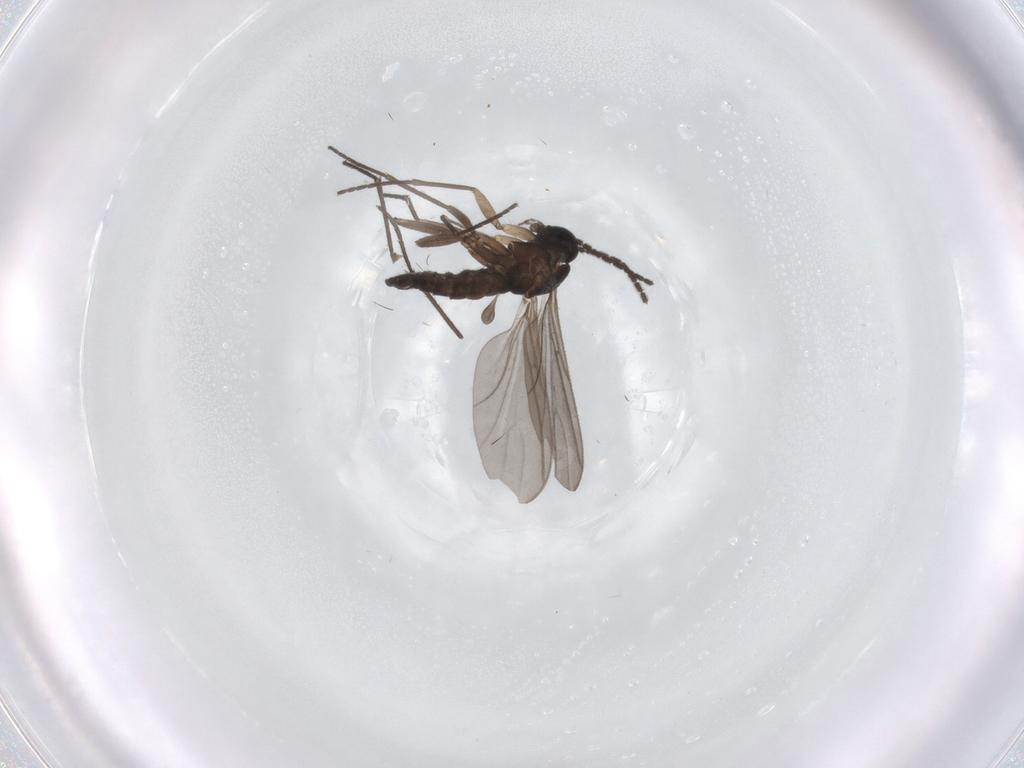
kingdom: Animalia
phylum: Arthropoda
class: Insecta
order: Diptera
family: Sciaridae
